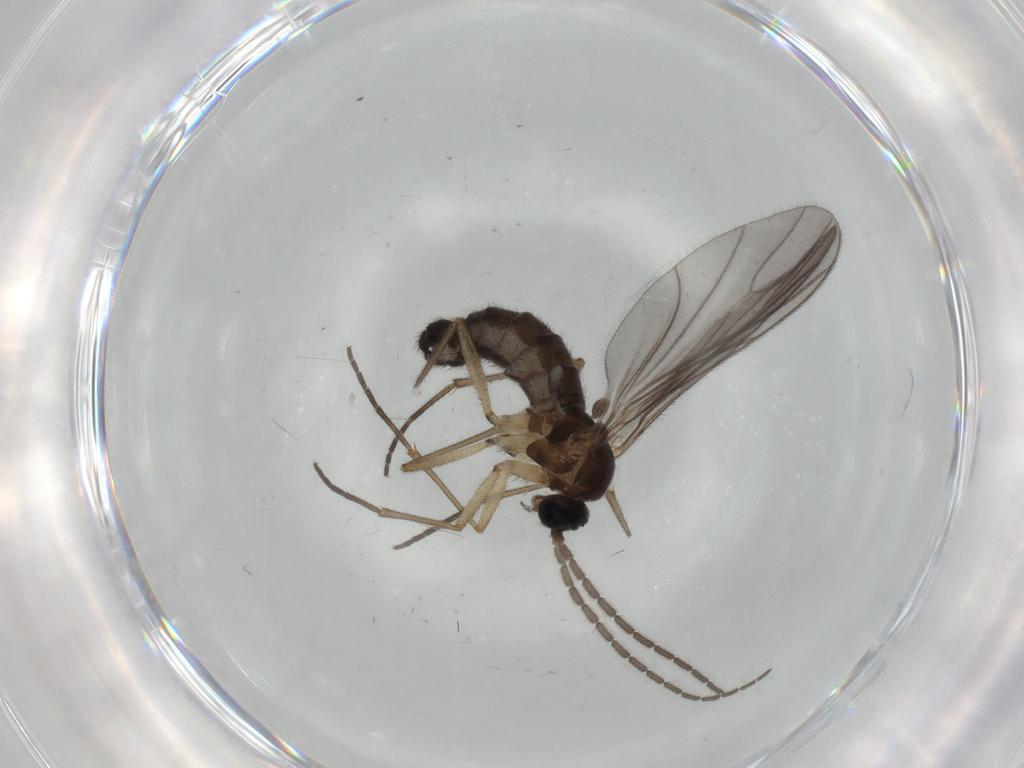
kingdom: Animalia
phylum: Arthropoda
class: Insecta
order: Diptera
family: Sciaridae
